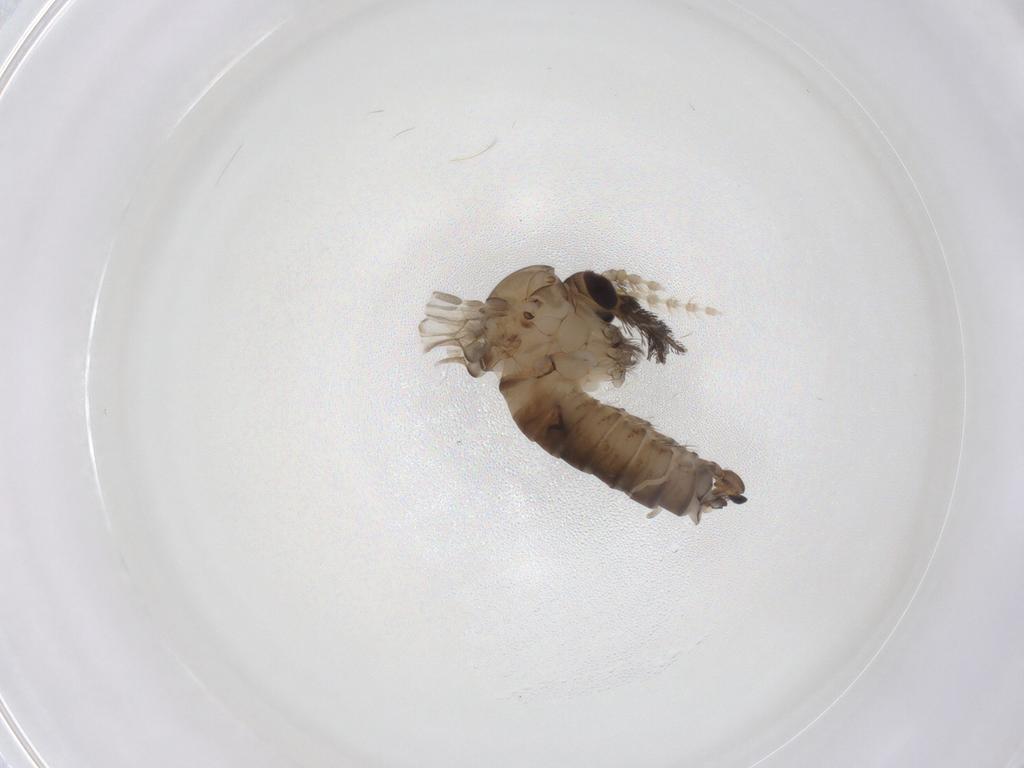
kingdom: Animalia
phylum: Arthropoda
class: Insecta
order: Diptera
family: Psychodidae
